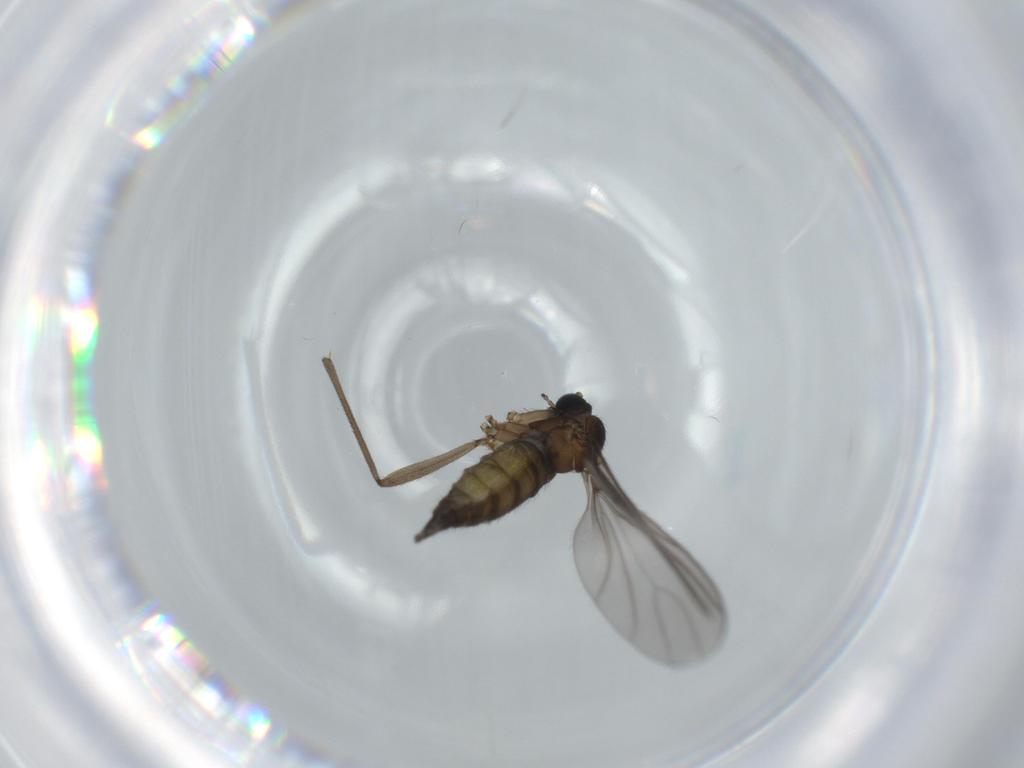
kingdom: Animalia
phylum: Arthropoda
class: Insecta
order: Diptera
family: Sciaridae
